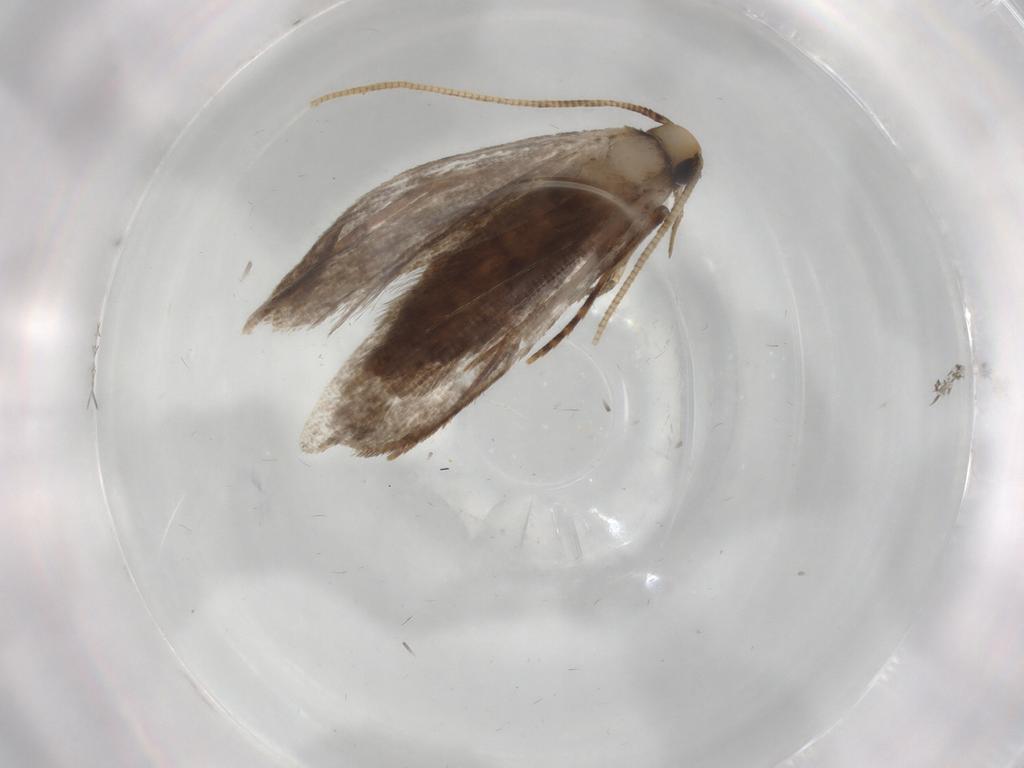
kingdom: Animalia
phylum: Arthropoda
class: Insecta
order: Lepidoptera
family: Tineidae
